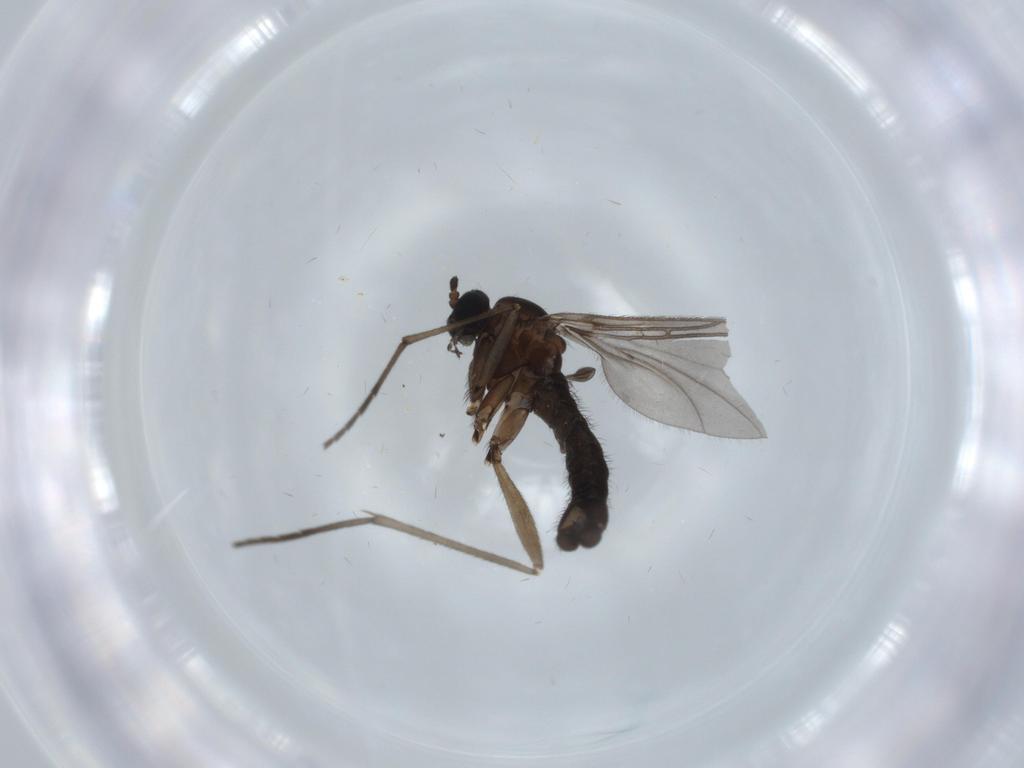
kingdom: Animalia
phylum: Arthropoda
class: Insecta
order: Diptera
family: Sciaridae
